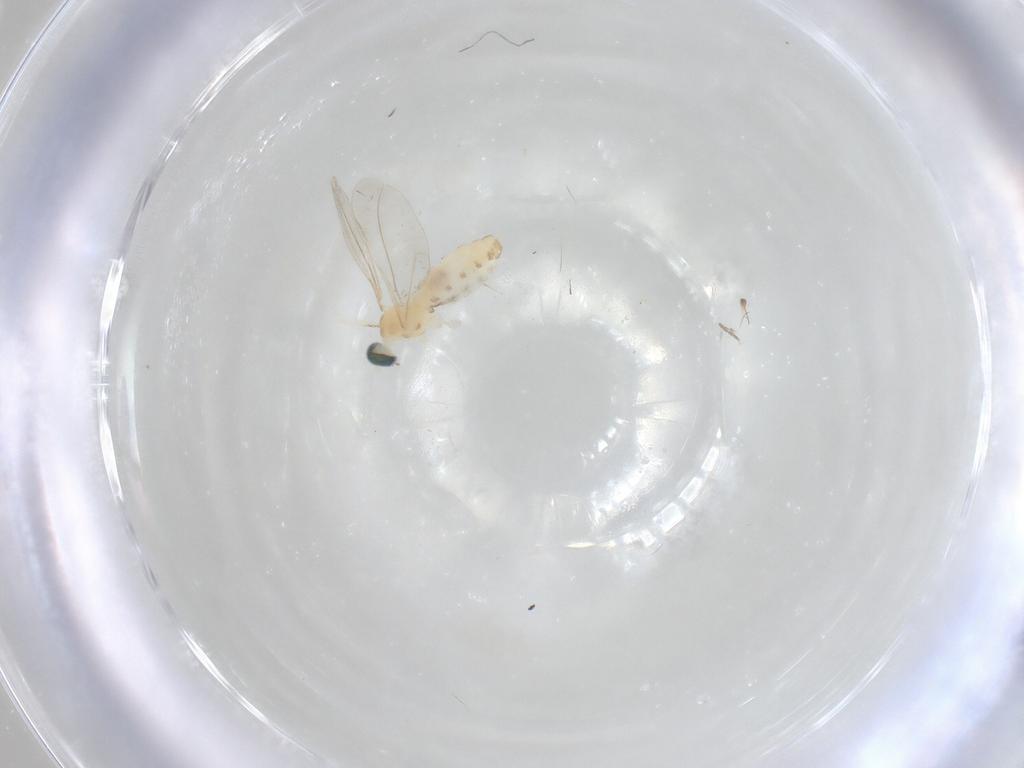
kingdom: Animalia
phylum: Arthropoda
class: Insecta
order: Diptera
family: Cecidomyiidae
